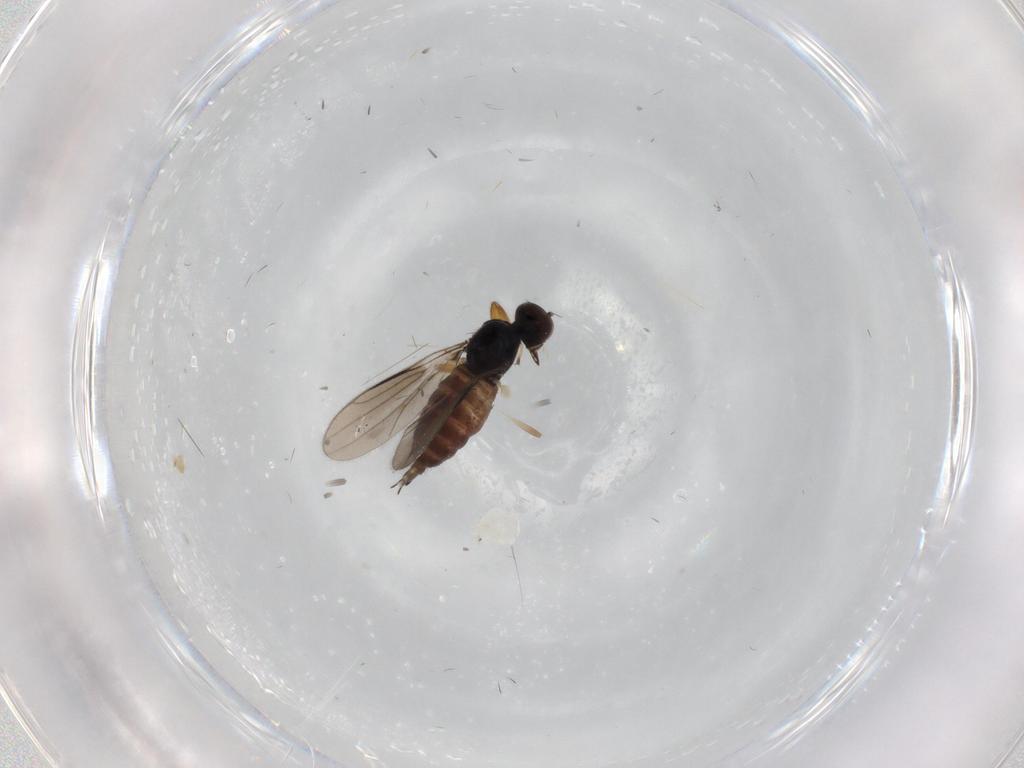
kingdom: Animalia
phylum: Arthropoda
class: Insecta
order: Diptera
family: Hybotidae
